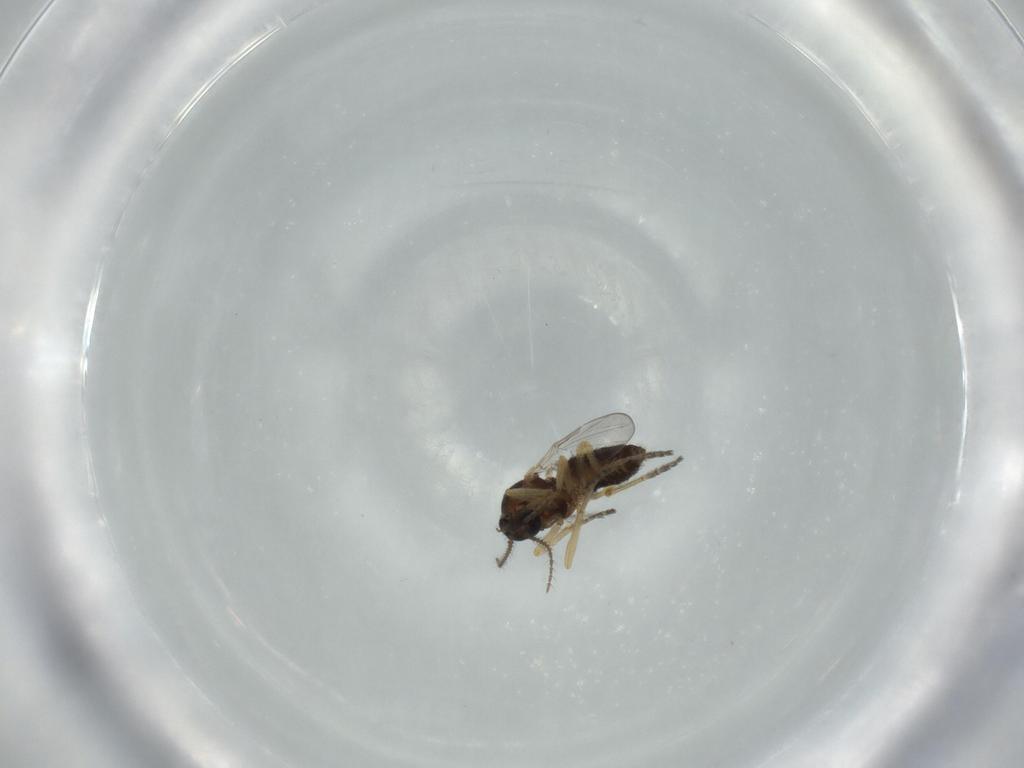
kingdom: Animalia
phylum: Arthropoda
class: Insecta
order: Diptera
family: Ceratopogonidae
